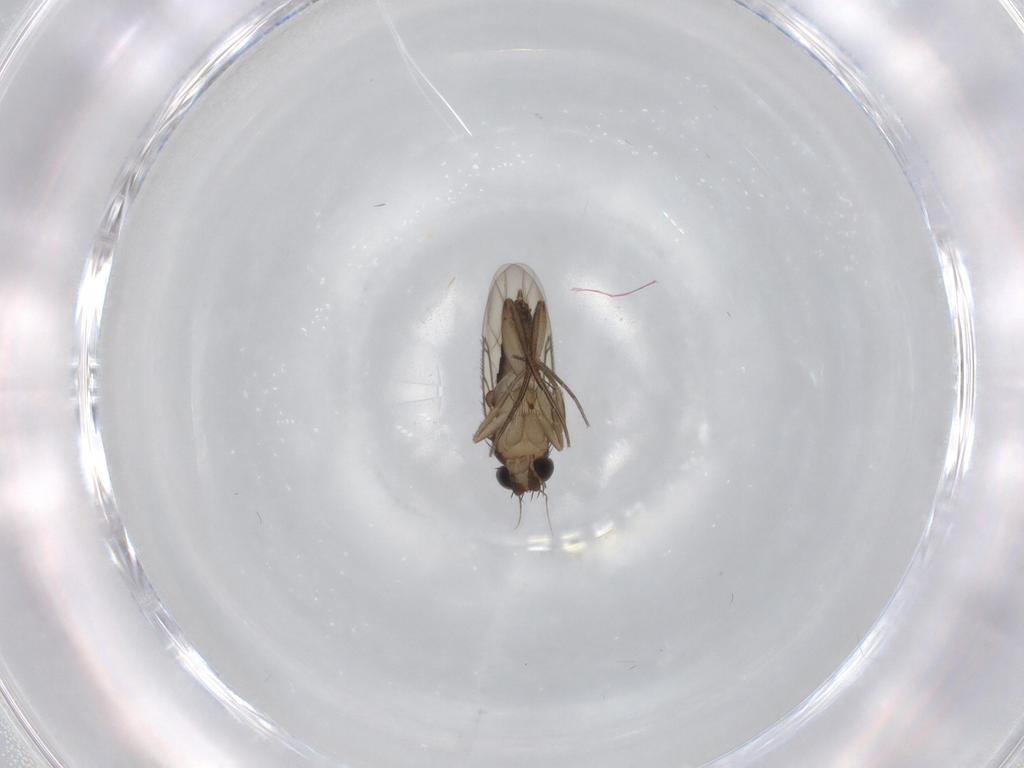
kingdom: Animalia
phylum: Arthropoda
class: Insecta
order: Diptera
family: Phoridae
